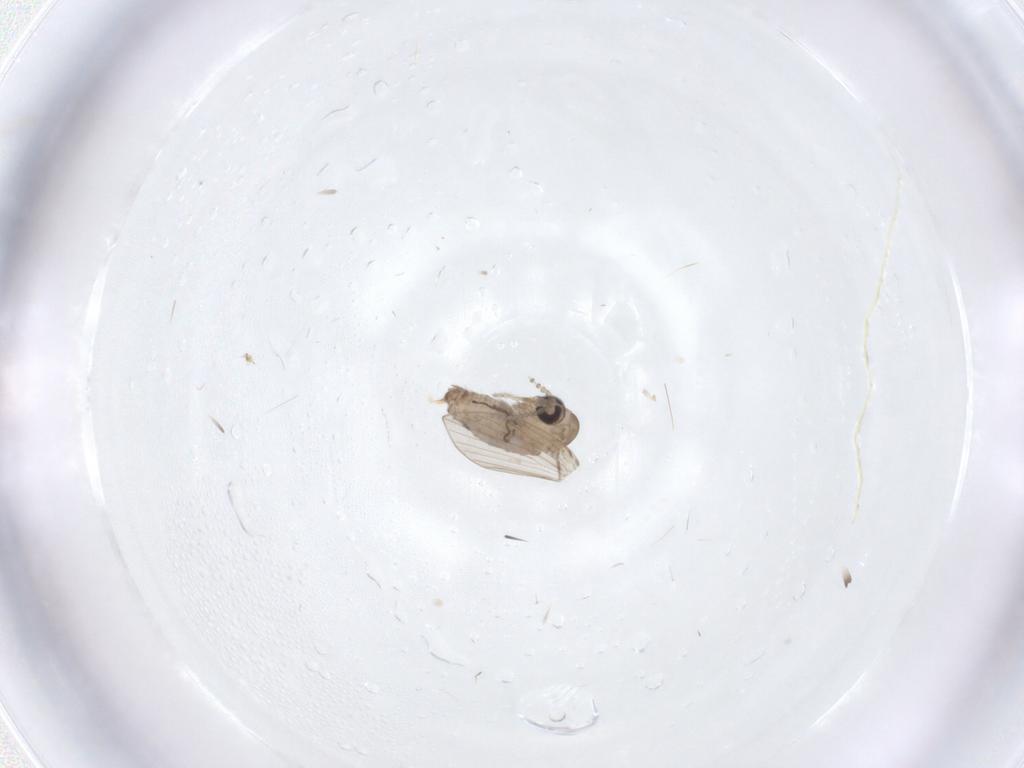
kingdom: Animalia
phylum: Arthropoda
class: Insecta
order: Diptera
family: Psychodidae
